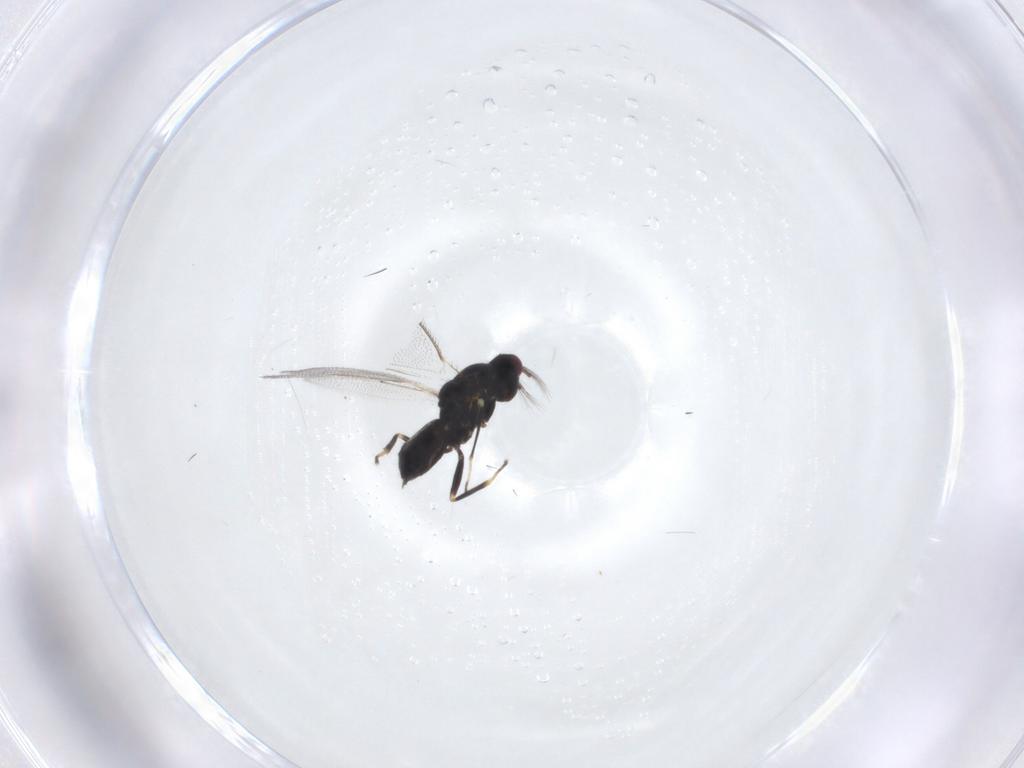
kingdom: Animalia
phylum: Arthropoda
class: Insecta
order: Hymenoptera
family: Eulophidae
